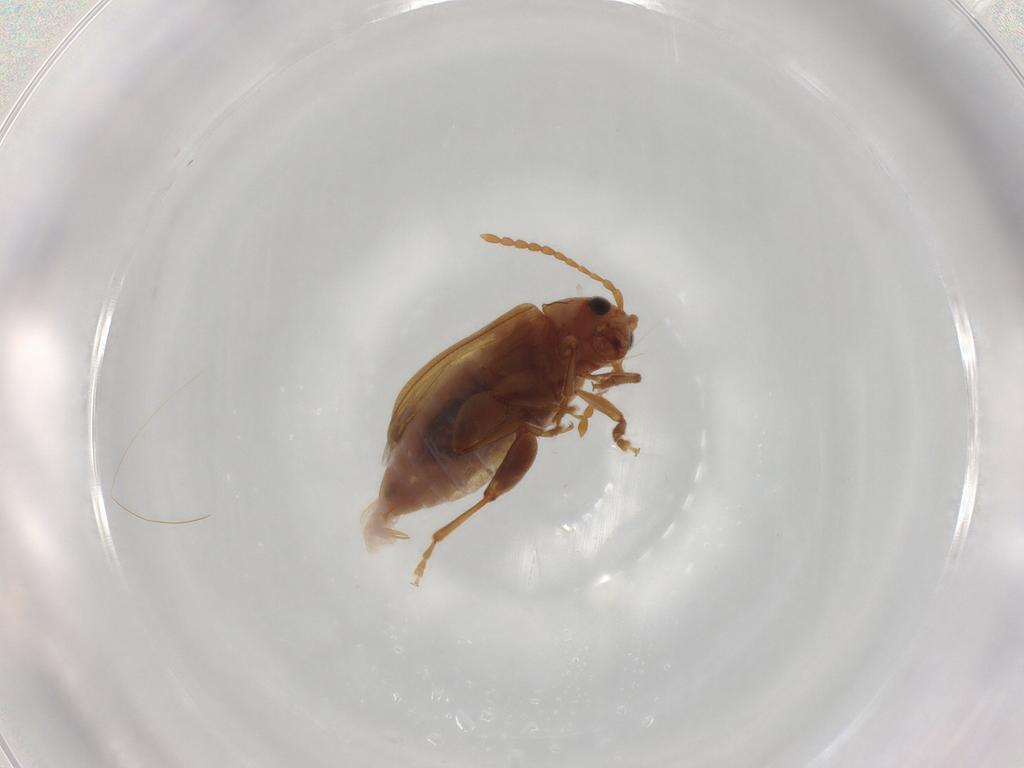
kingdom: Animalia
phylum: Arthropoda
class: Insecta
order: Coleoptera
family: Chrysomelidae
